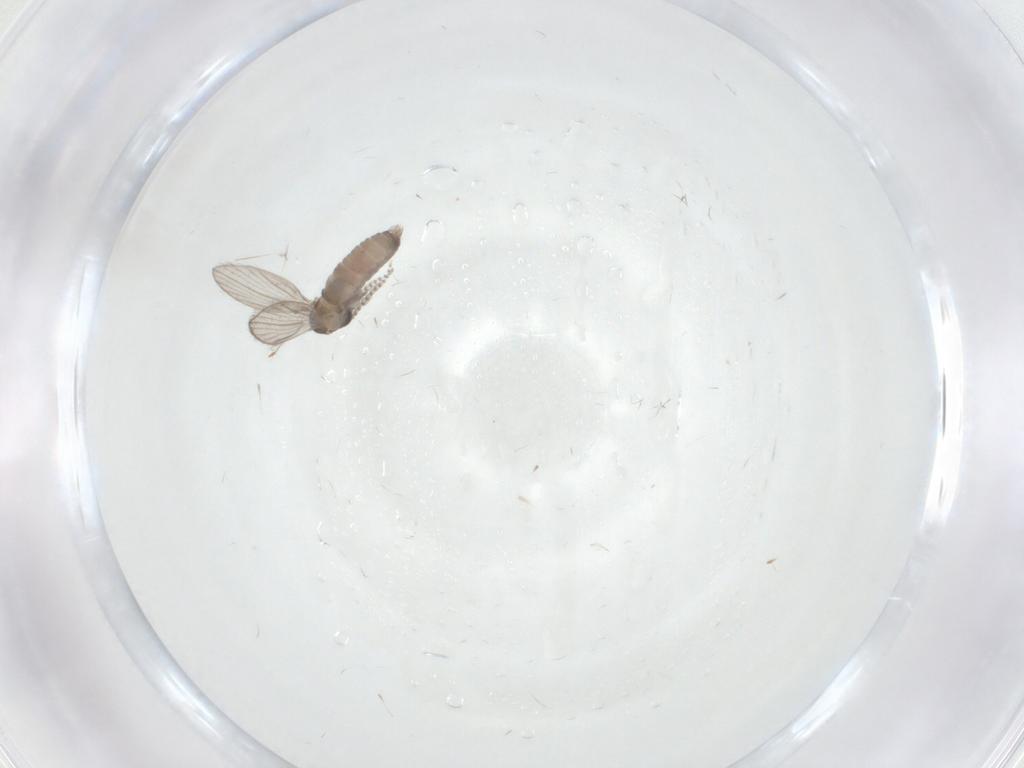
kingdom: Animalia
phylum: Arthropoda
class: Insecta
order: Diptera
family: Psychodidae
